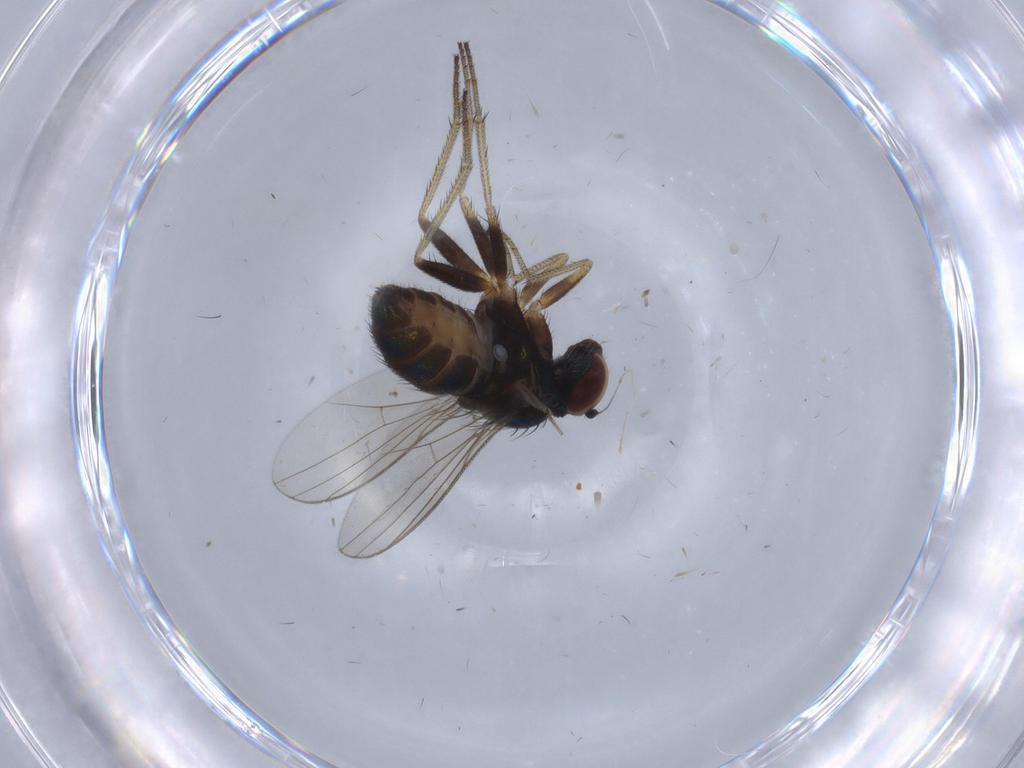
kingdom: Animalia
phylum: Arthropoda
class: Insecta
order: Diptera
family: Dolichopodidae
